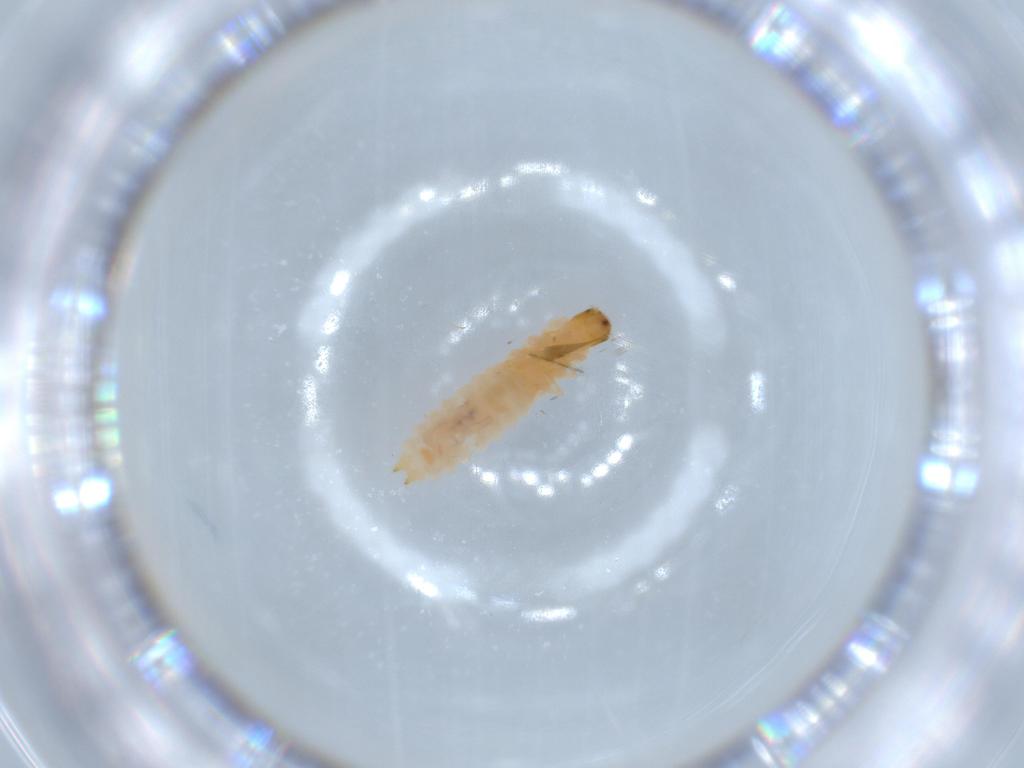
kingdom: Animalia
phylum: Arthropoda
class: Insecta
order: Coleoptera
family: Melyridae
